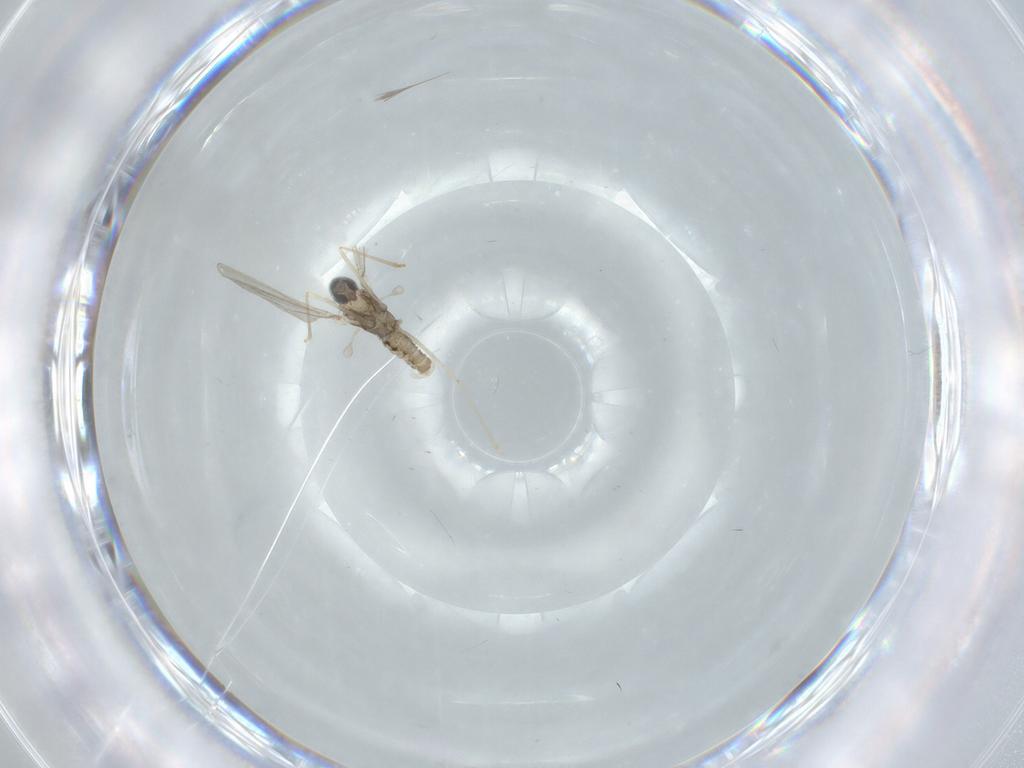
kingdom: Animalia
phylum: Arthropoda
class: Insecta
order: Diptera
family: Cecidomyiidae
